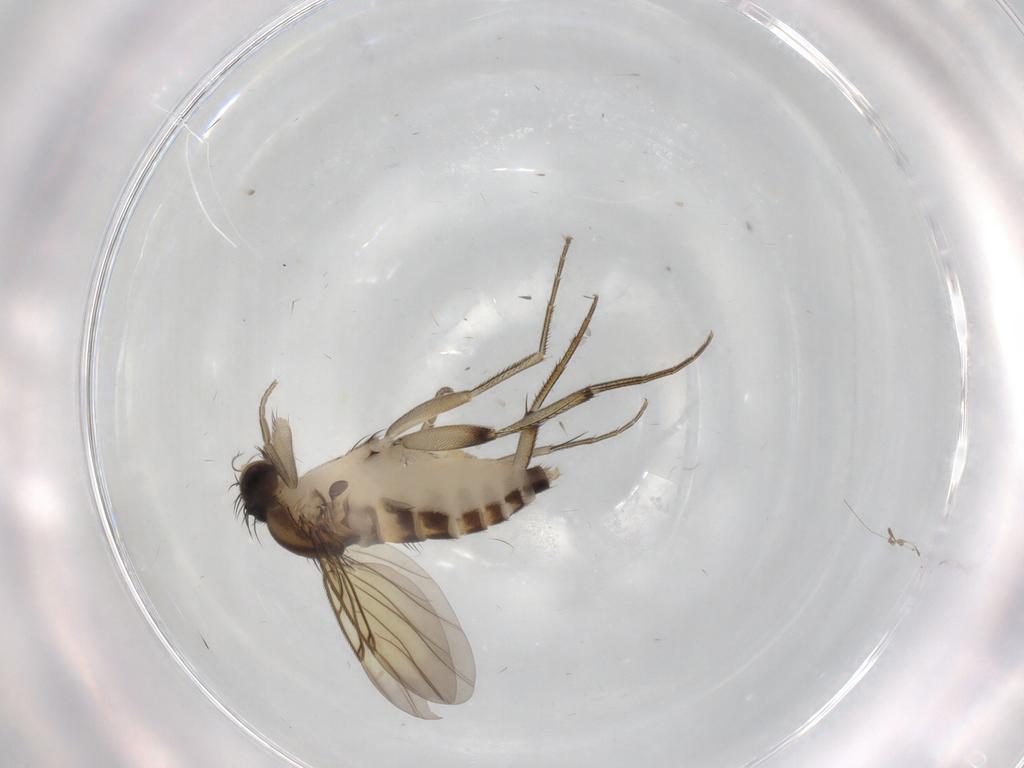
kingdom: Animalia
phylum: Arthropoda
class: Insecta
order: Diptera
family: Phoridae
